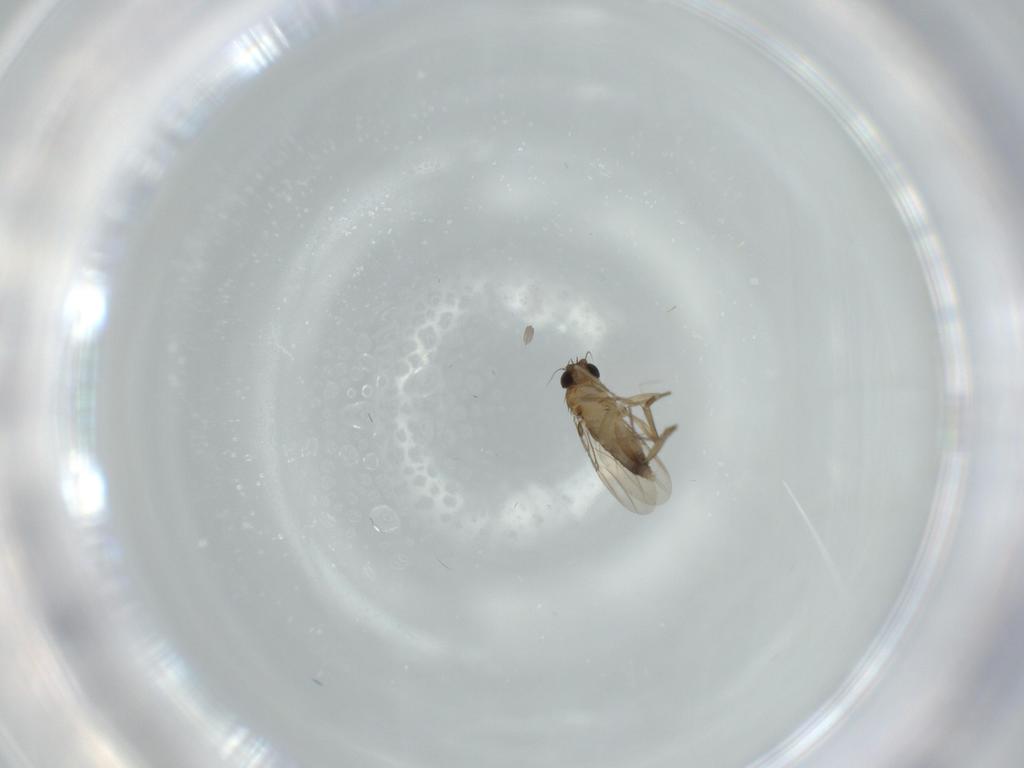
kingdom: Animalia
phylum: Arthropoda
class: Insecta
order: Diptera
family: Phoridae
